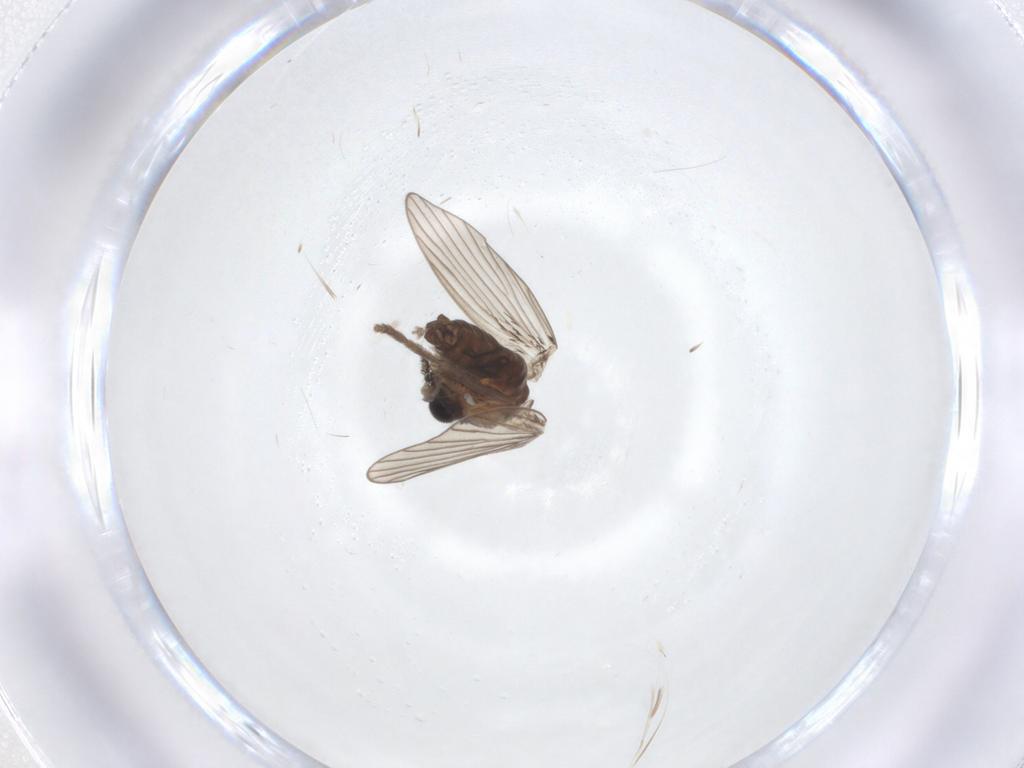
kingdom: Animalia
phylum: Arthropoda
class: Insecta
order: Diptera
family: Psychodidae
